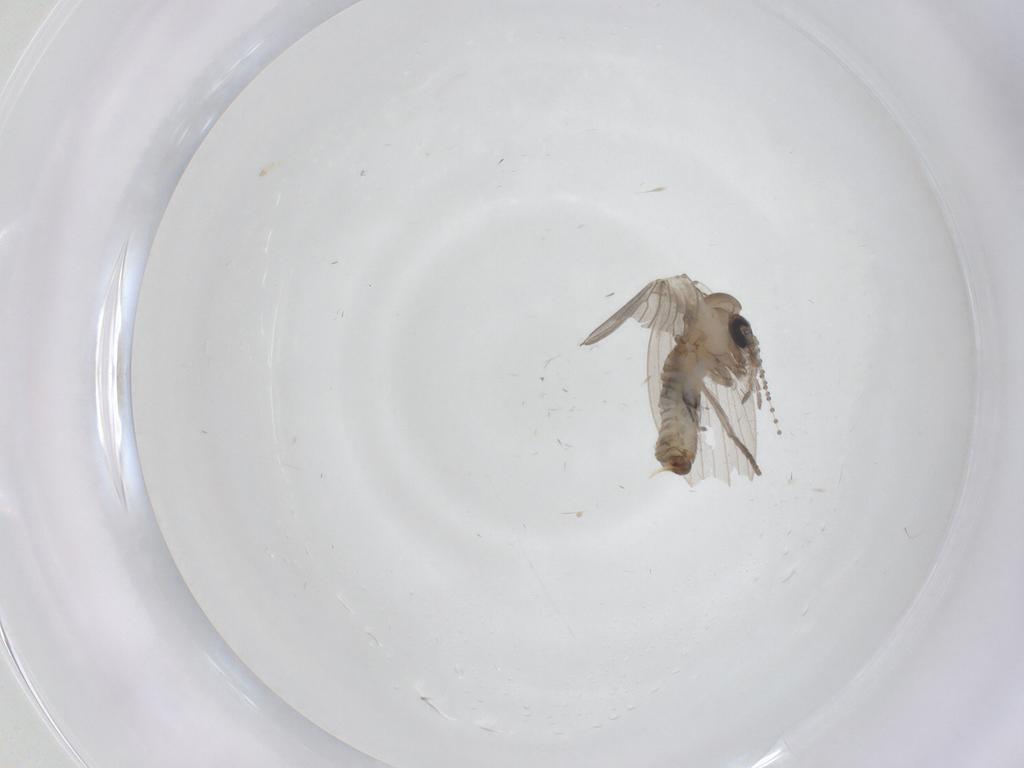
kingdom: Animalia
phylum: Arthropoda
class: Insecta
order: Diptera
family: Psychodidae
